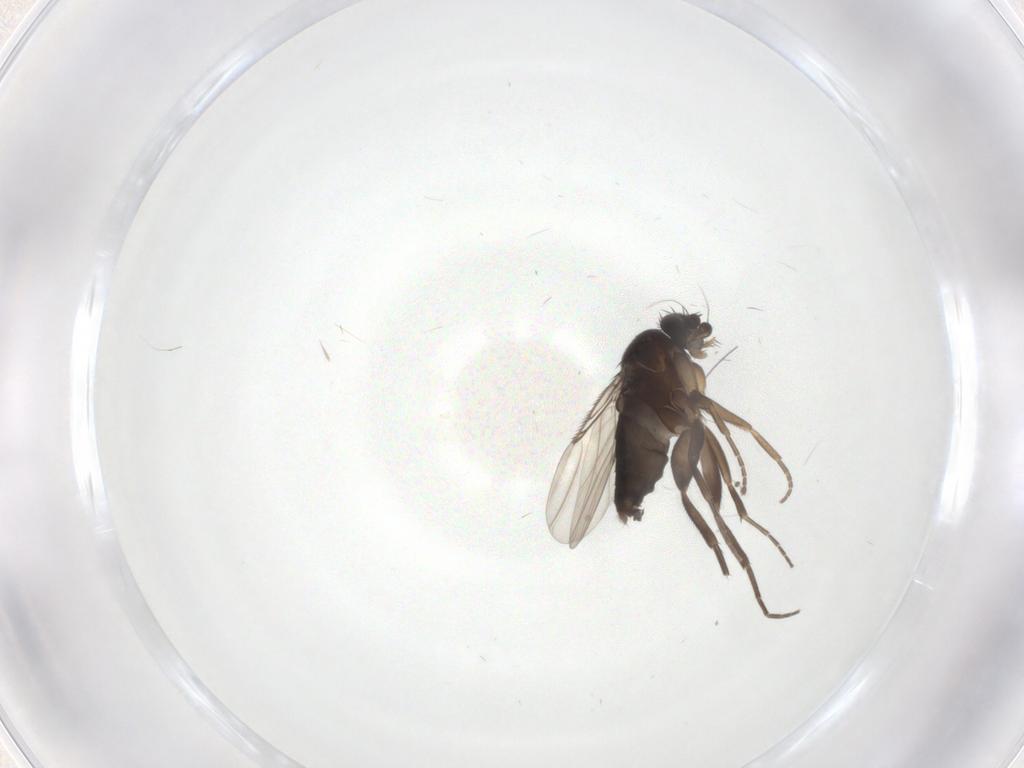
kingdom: Animalia
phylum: Arthropoda
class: Insecta
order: Diptera
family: Phoridae
